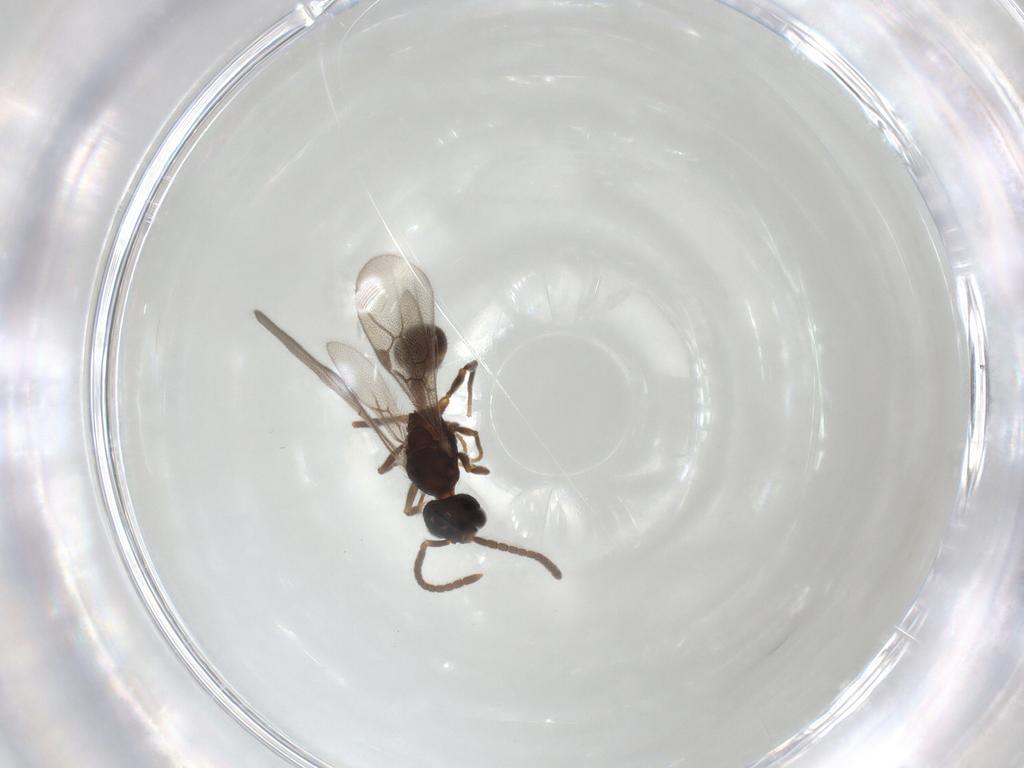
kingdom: Animalia
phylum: Arthropoda
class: Insecta
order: Hymenoptera
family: Formicidae
